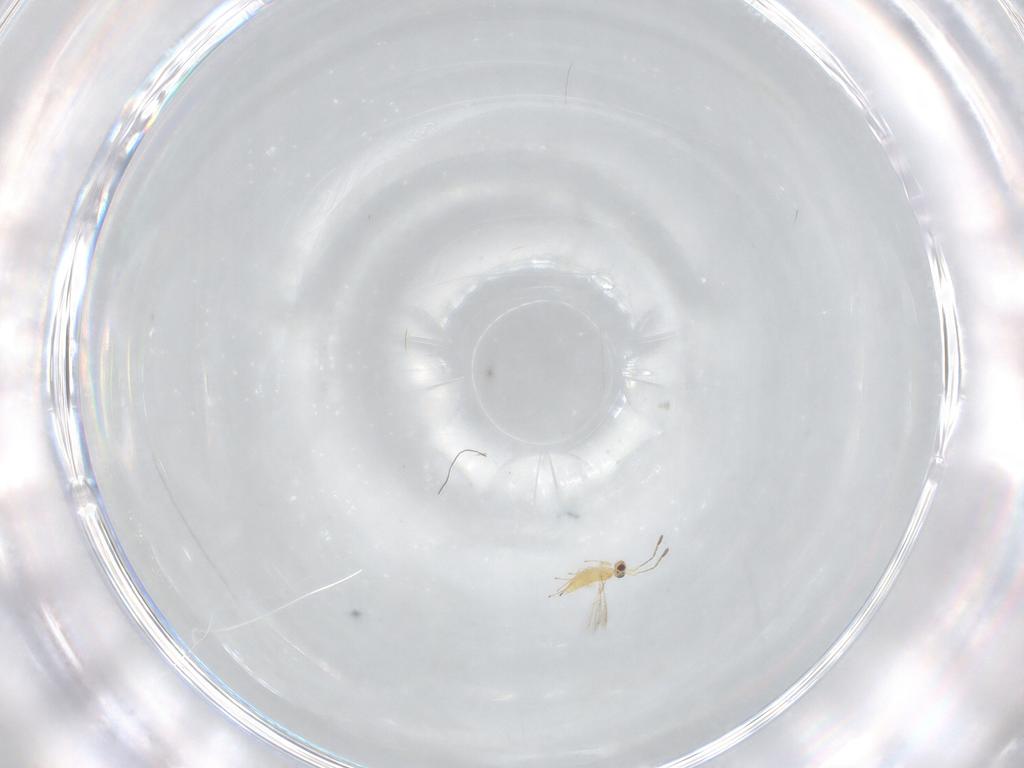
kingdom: Animalia
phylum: Arthropoda
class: Insecta
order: Hymenoptera
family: Mymaridae
